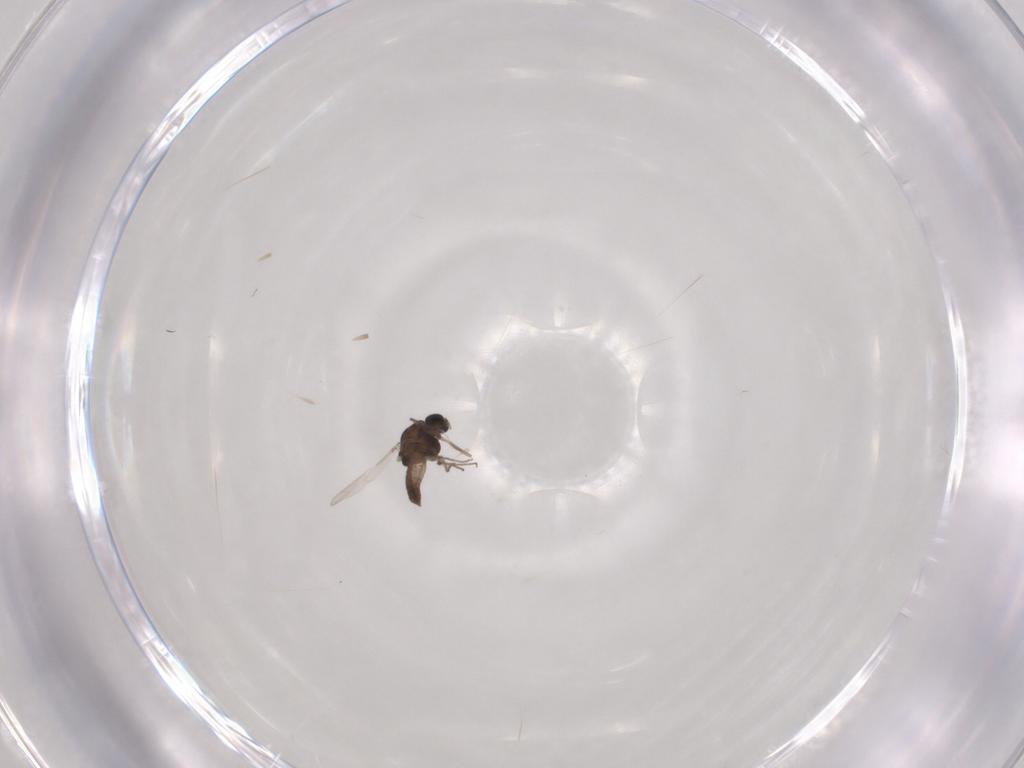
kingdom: Animalia
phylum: Arthropoda
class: Insecta
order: Diptera
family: Chironomidae
